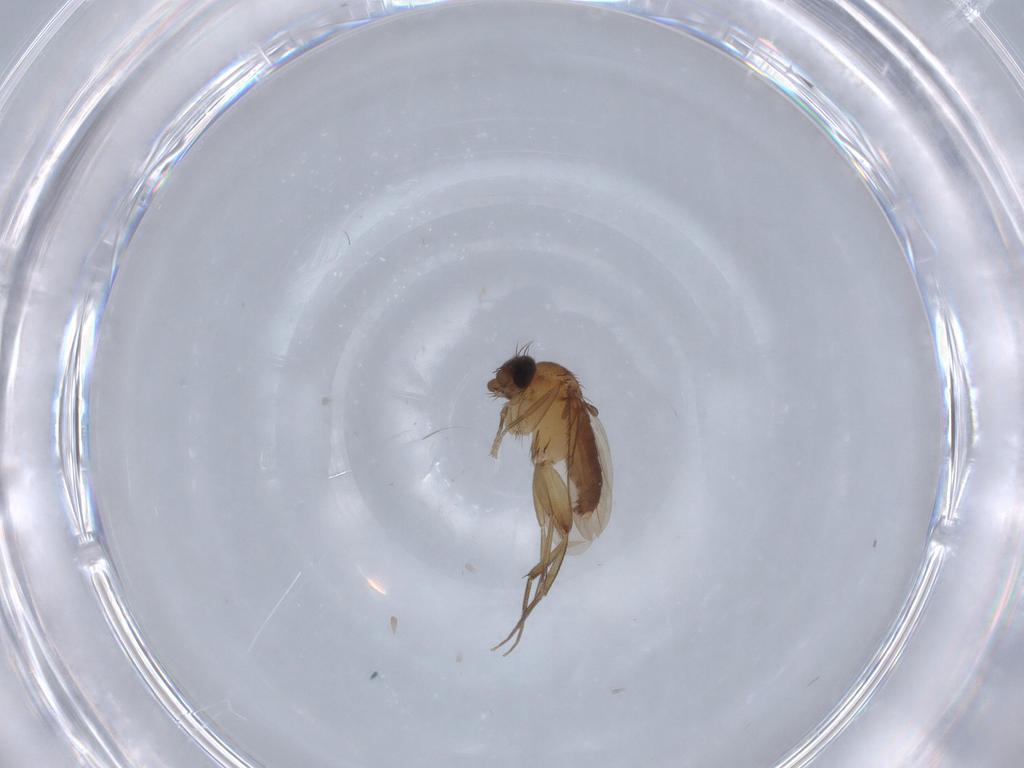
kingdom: Animalia
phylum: Arthropoda
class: Insecta
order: Diptera
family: Phoridae
